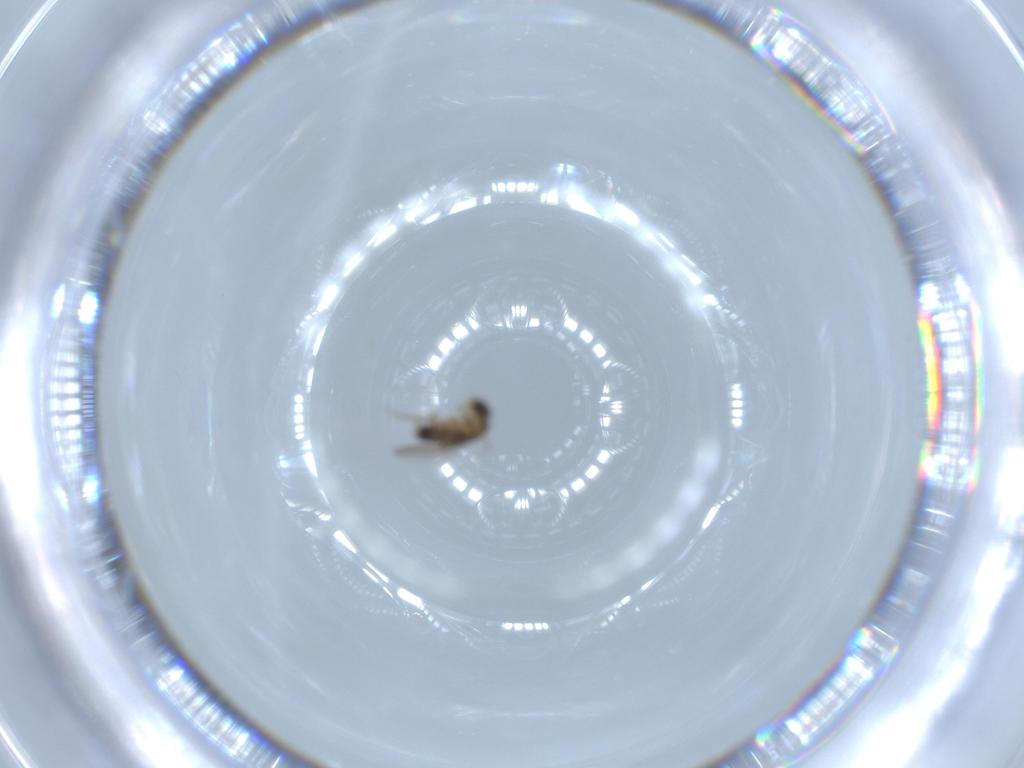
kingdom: Animalia
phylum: Arthropoda
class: Insecta
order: Diptera
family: Phoridae
